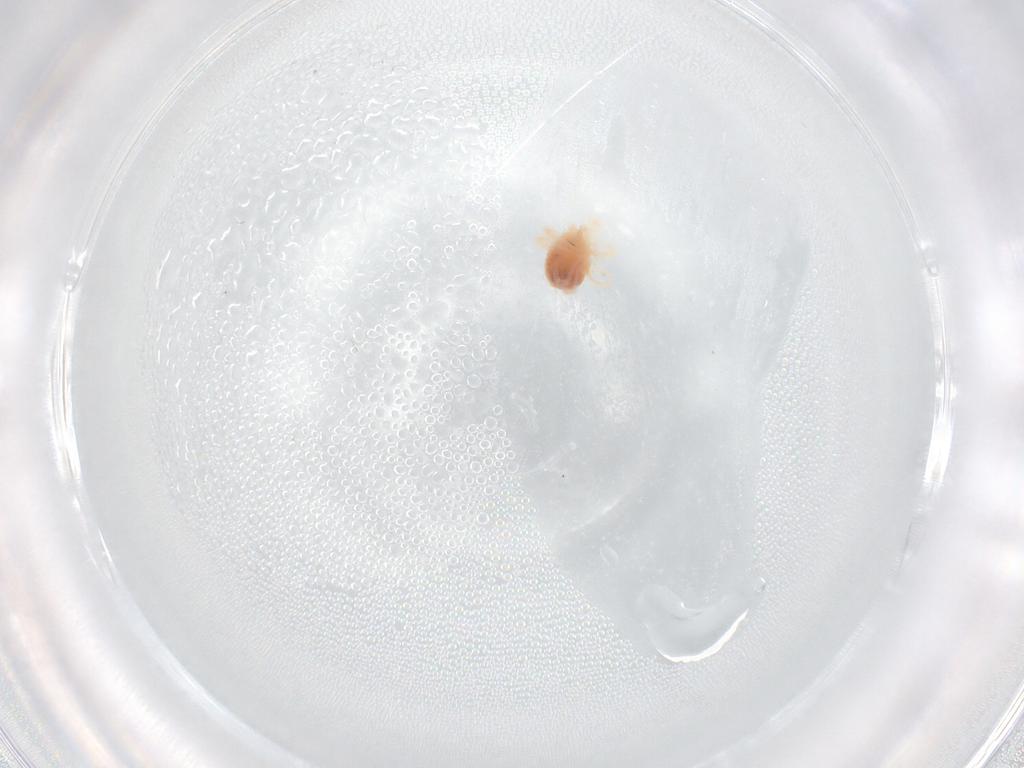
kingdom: Animalia
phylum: Arthropoda
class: Arachnida
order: Trombidiformes
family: Anystidae
